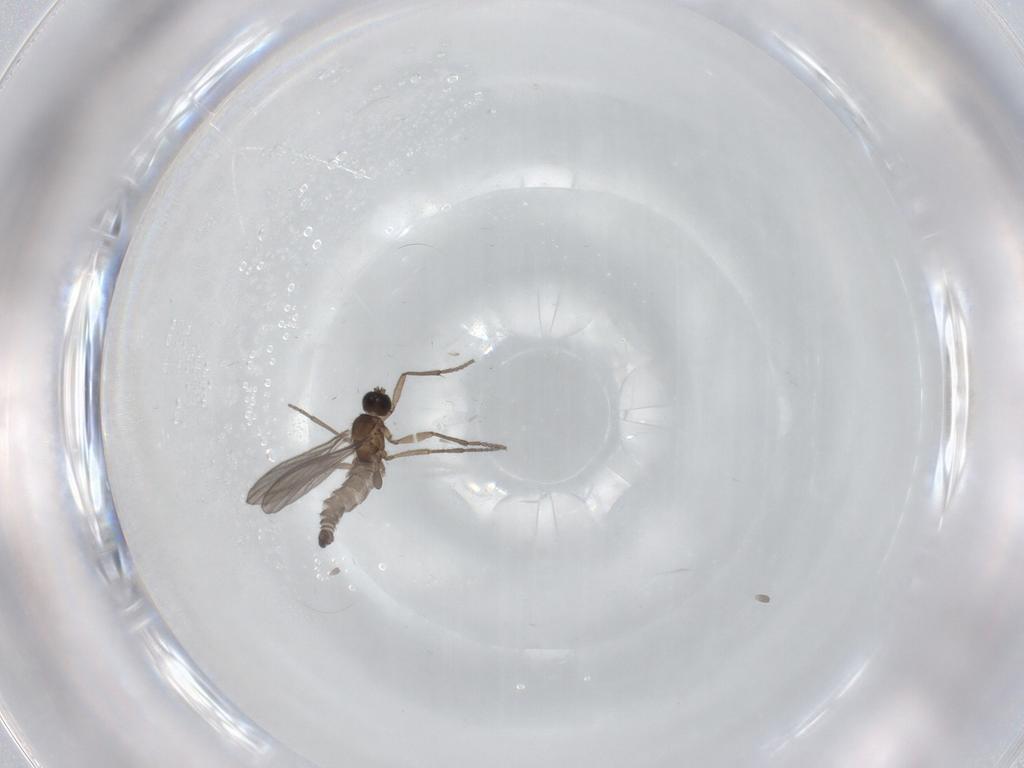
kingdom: Animalia
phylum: Arthropoda
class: Insecta
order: Diptera
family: Sciaridae
